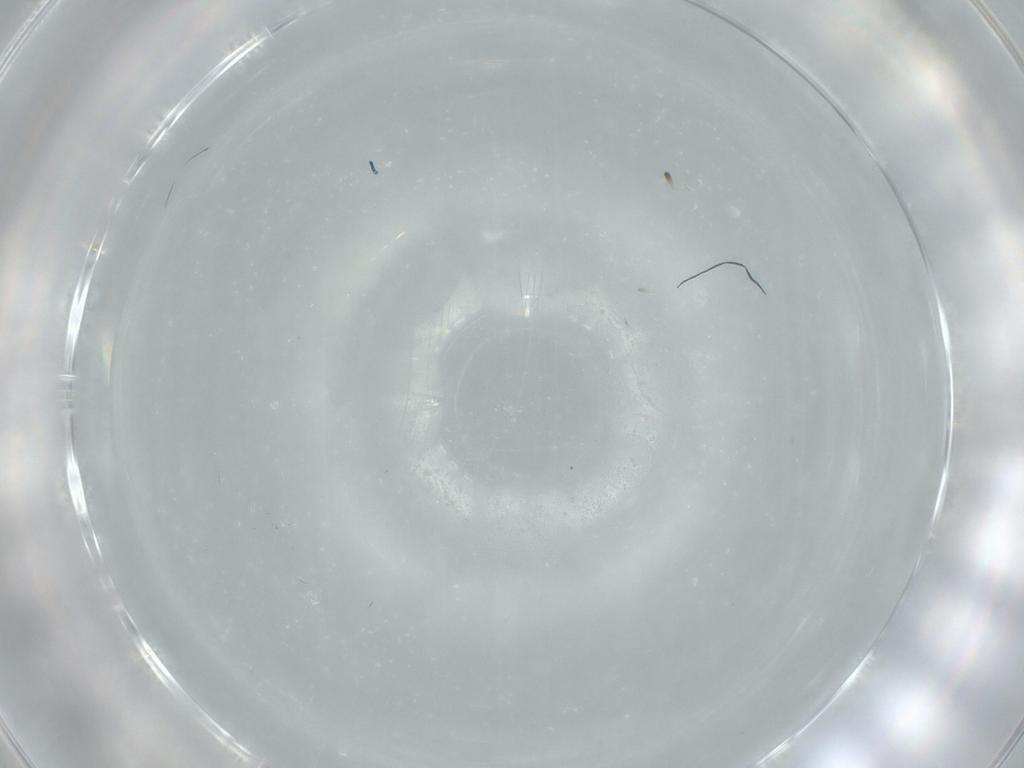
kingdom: Animalia
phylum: Arthropoda
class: Insecta
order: Diptera
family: Cecidomyiidae
